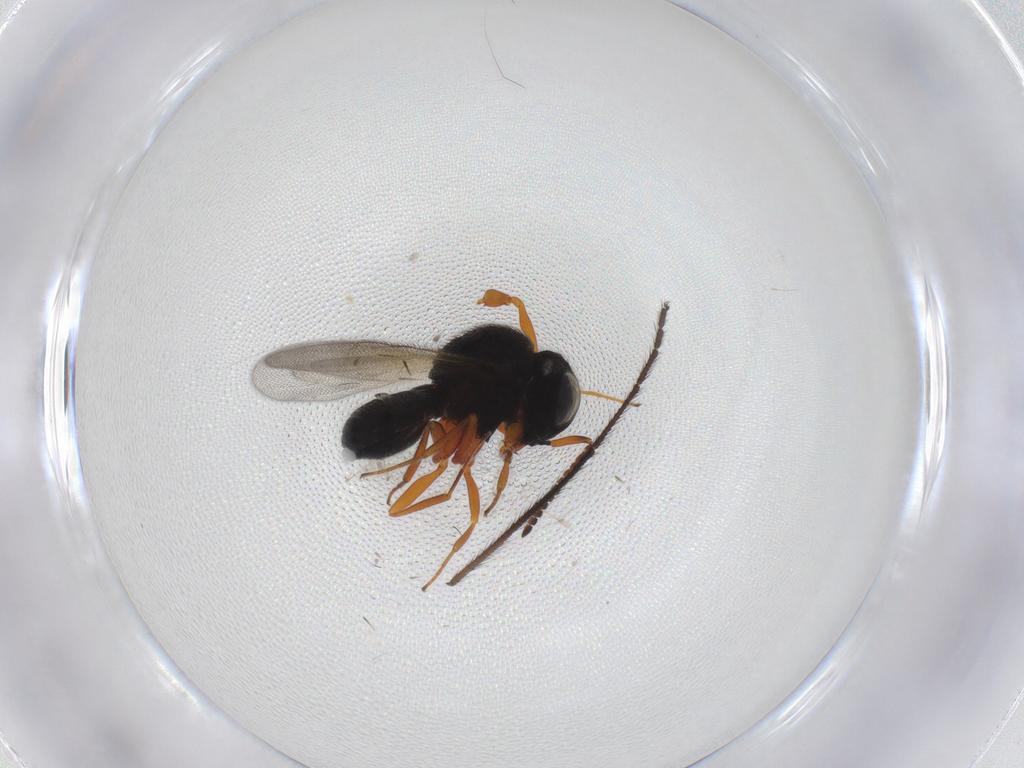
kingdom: Animalia
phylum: Arthropoda
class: Insecta
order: Hymenoptera
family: Scelionidae
